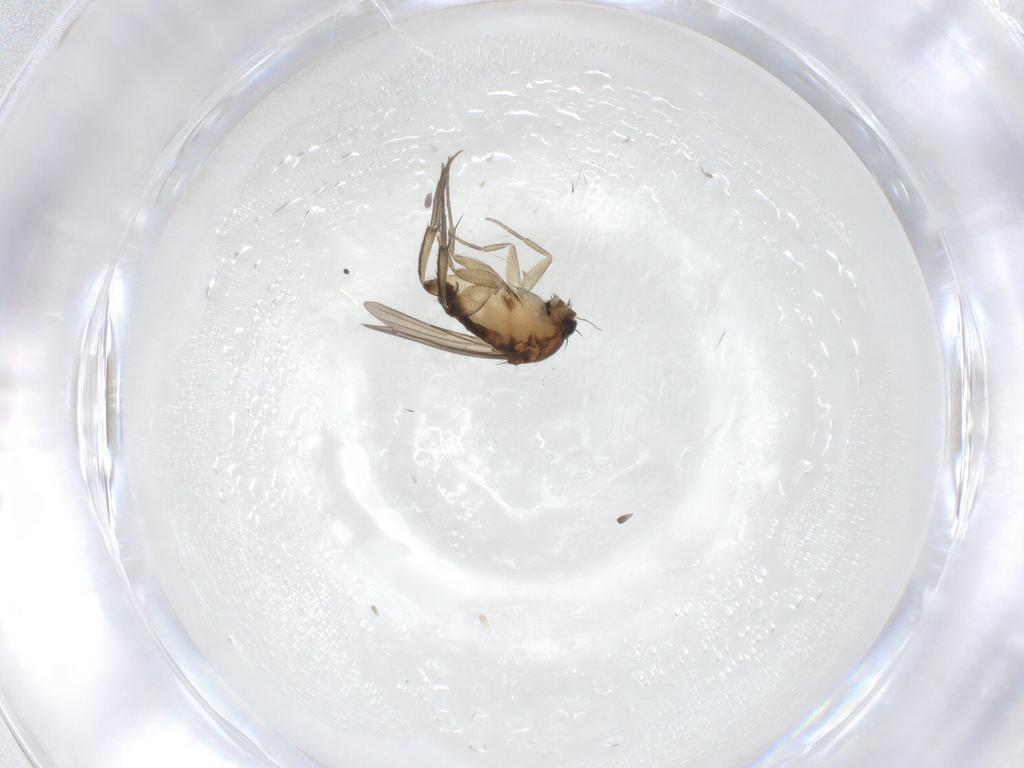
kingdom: Animalia
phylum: Arthropoda
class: Insecta
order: Diptera
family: Sciaridae
